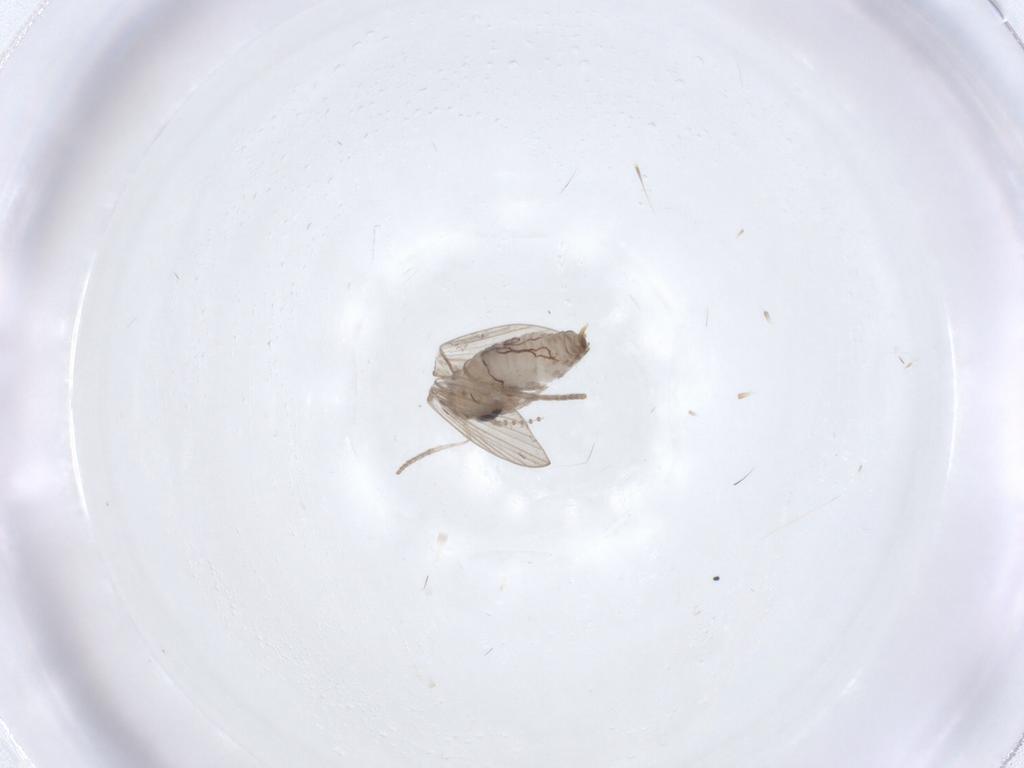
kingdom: Animalia
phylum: Arthropoda
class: Insecta
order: Diptera
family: Psychodidae
